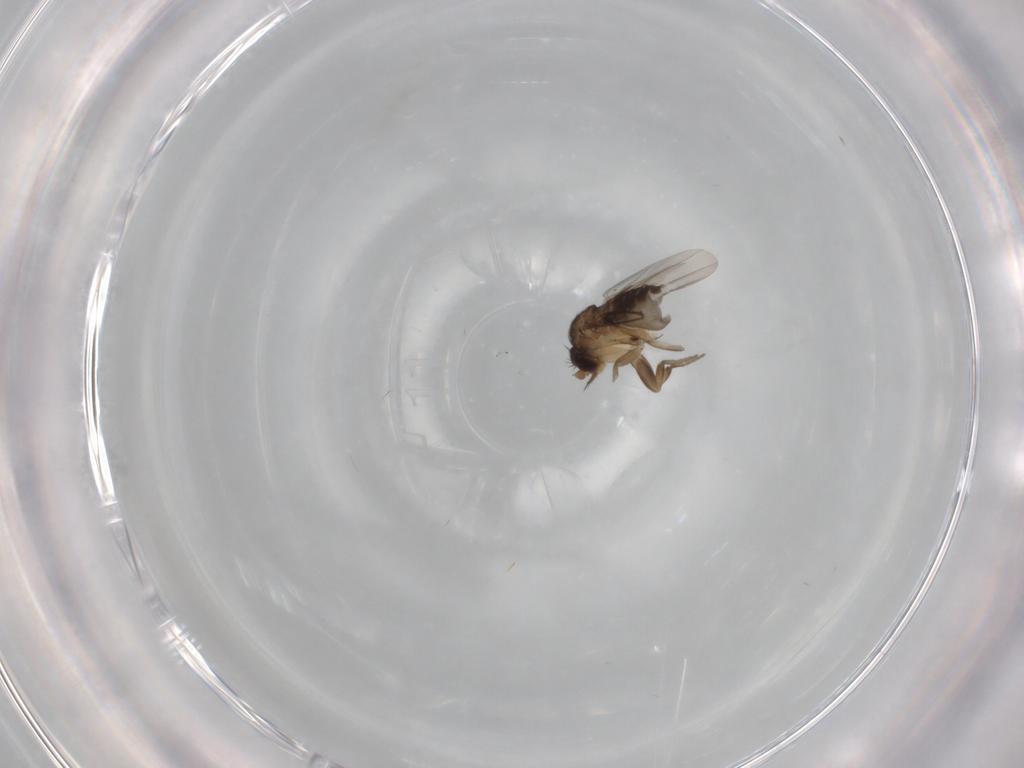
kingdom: Animalia
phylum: Arthropoda
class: Insecta
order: Diptera
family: Phoridae
